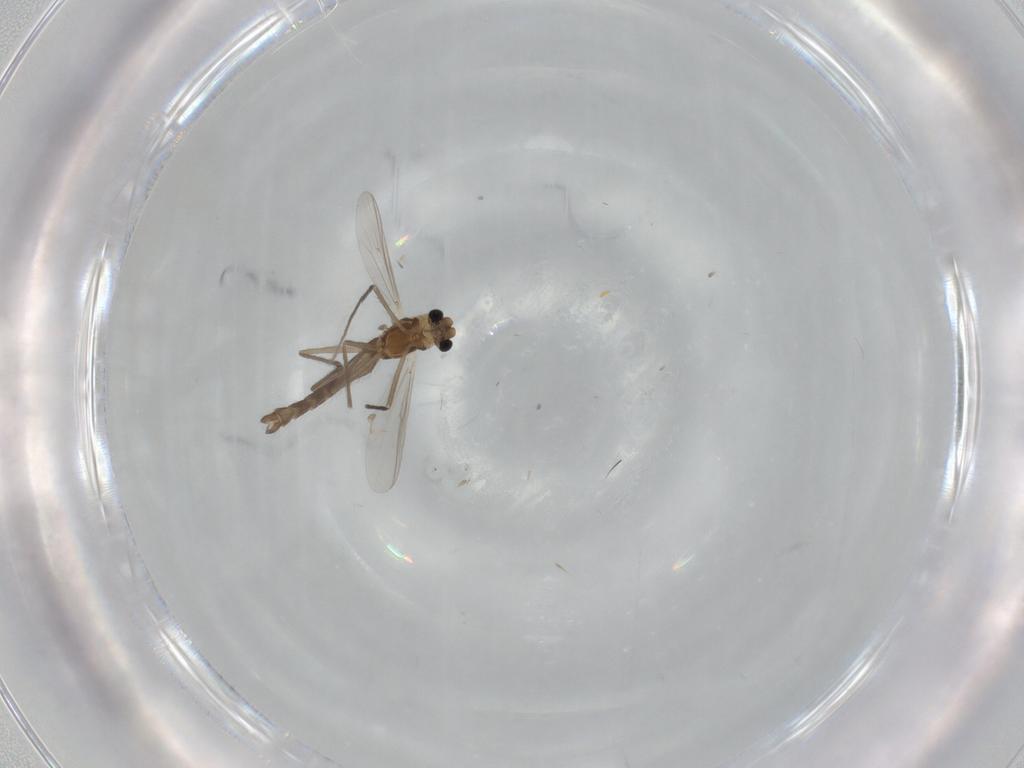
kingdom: Animalia
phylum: Arthropoda
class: Insecta
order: Diptera
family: Chironomidae
